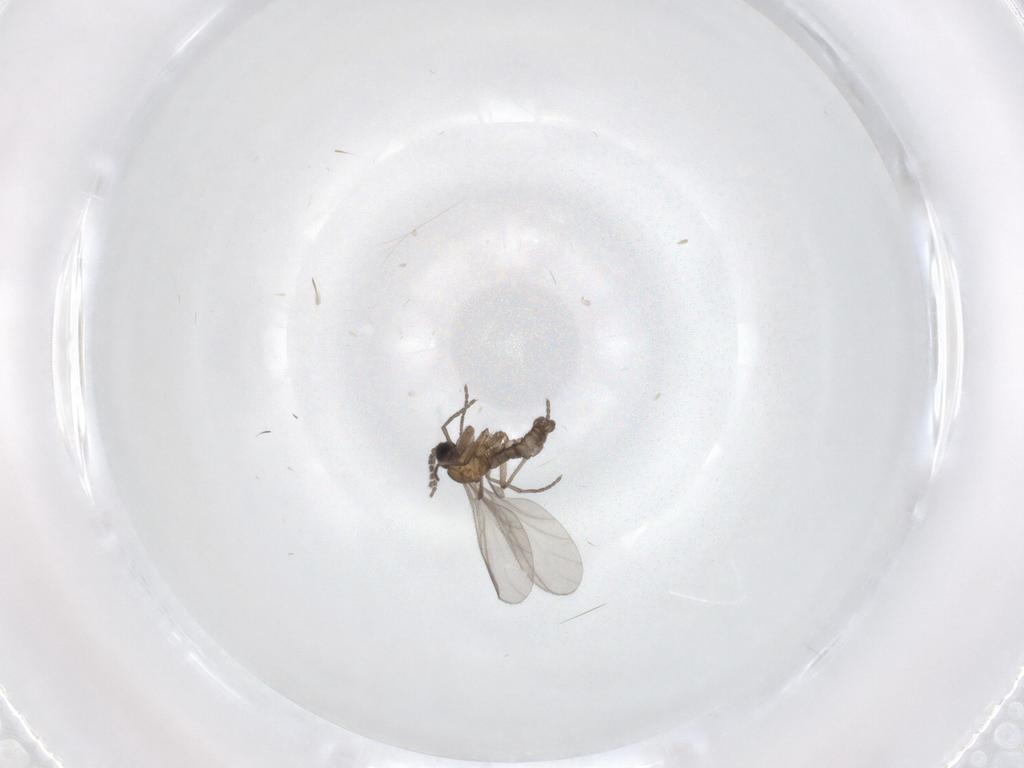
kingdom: Animalia
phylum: Arthropoda
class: Insecta
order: Diptera
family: Sciaridae
